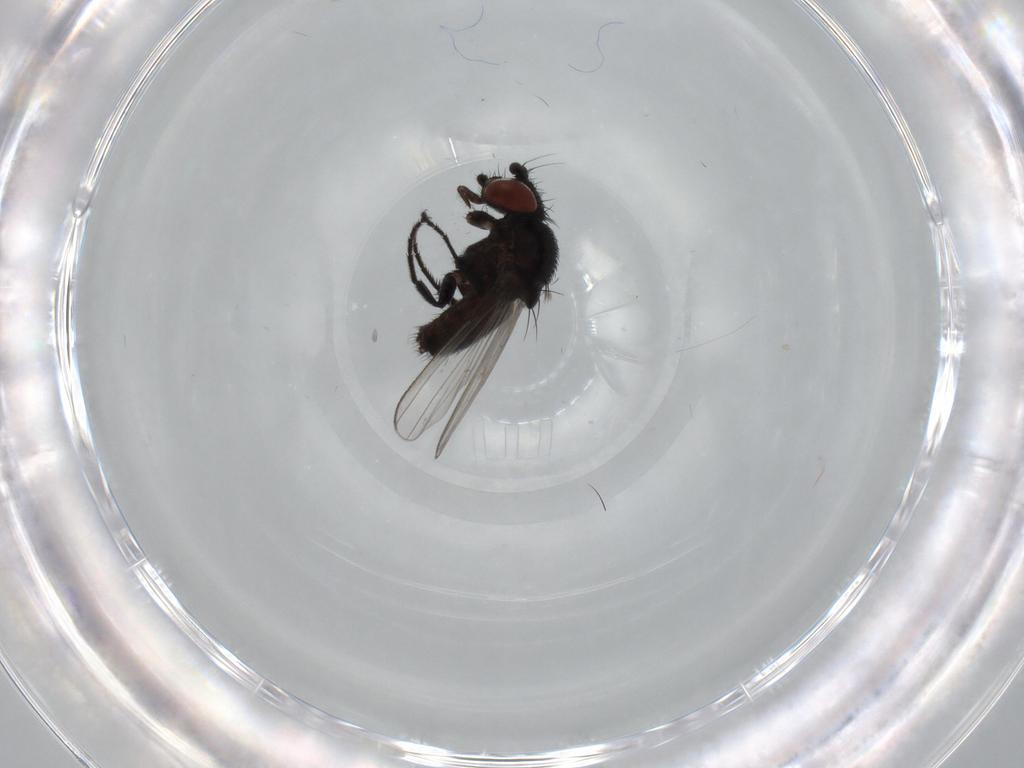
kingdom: Animalia
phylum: Arthropoda
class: Insecta
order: Diptera
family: Milichiidae
